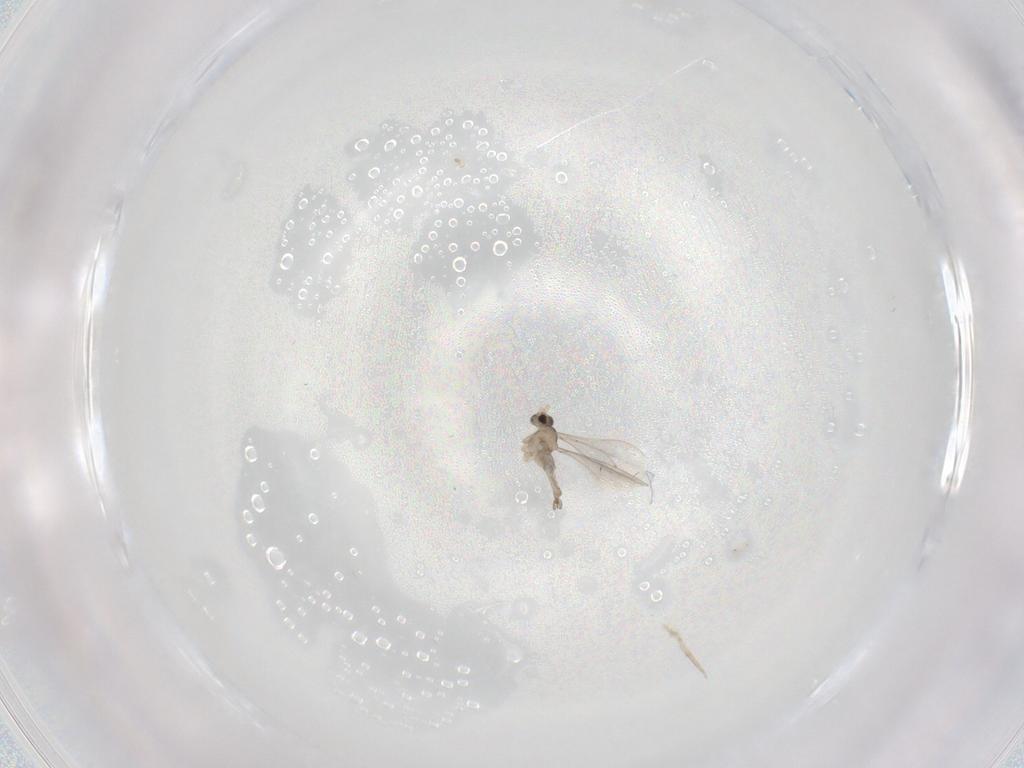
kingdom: Animalia
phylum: Arthropoda
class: Insecta
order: Diptera
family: Cecidomyiidae
